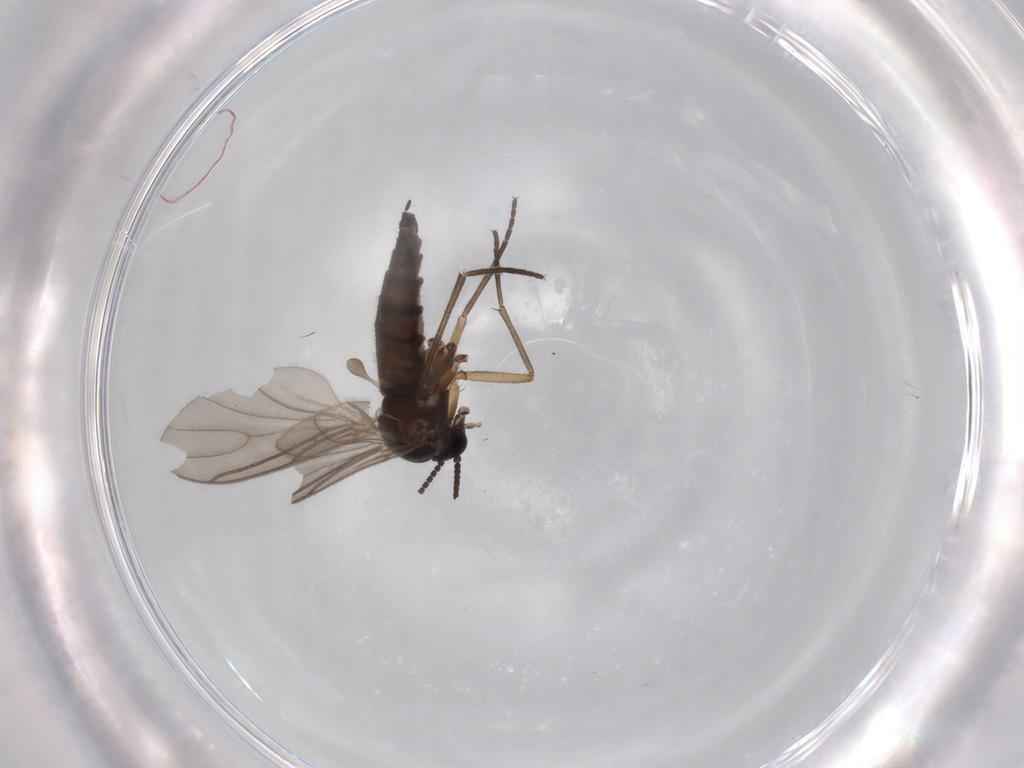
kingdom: Animalia
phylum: Arthropoda
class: Insecta
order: Diptera
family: Sciaridae
